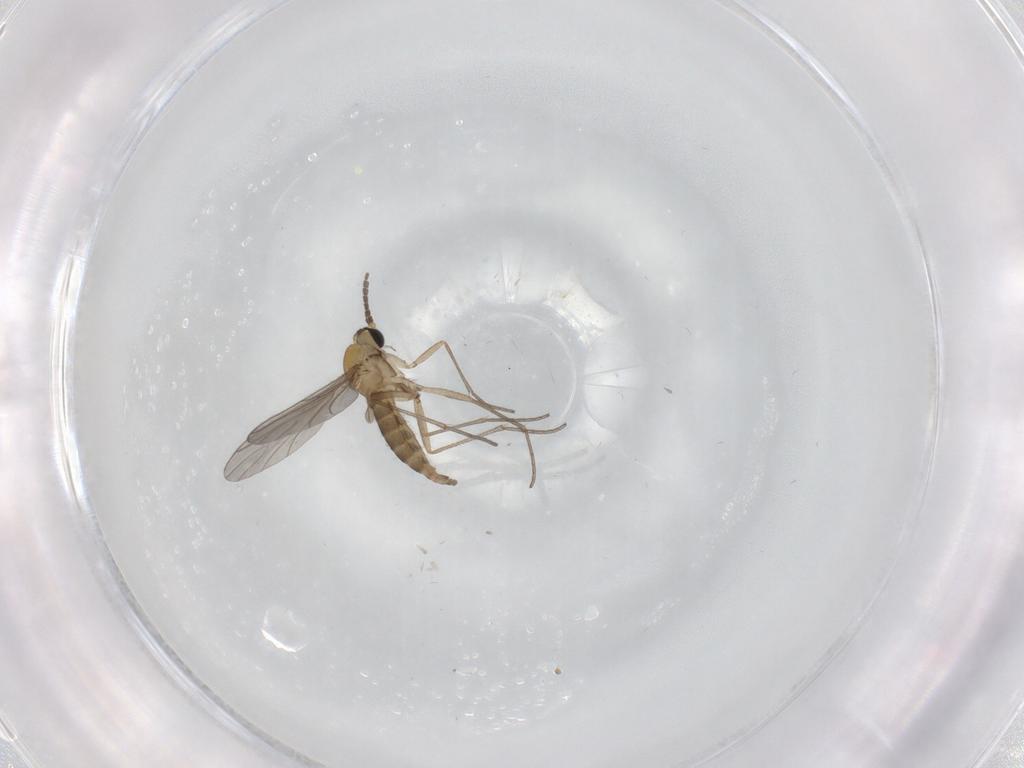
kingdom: Animalia
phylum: Arthropoda
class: Insecta
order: Diptera
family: Sciaridae
